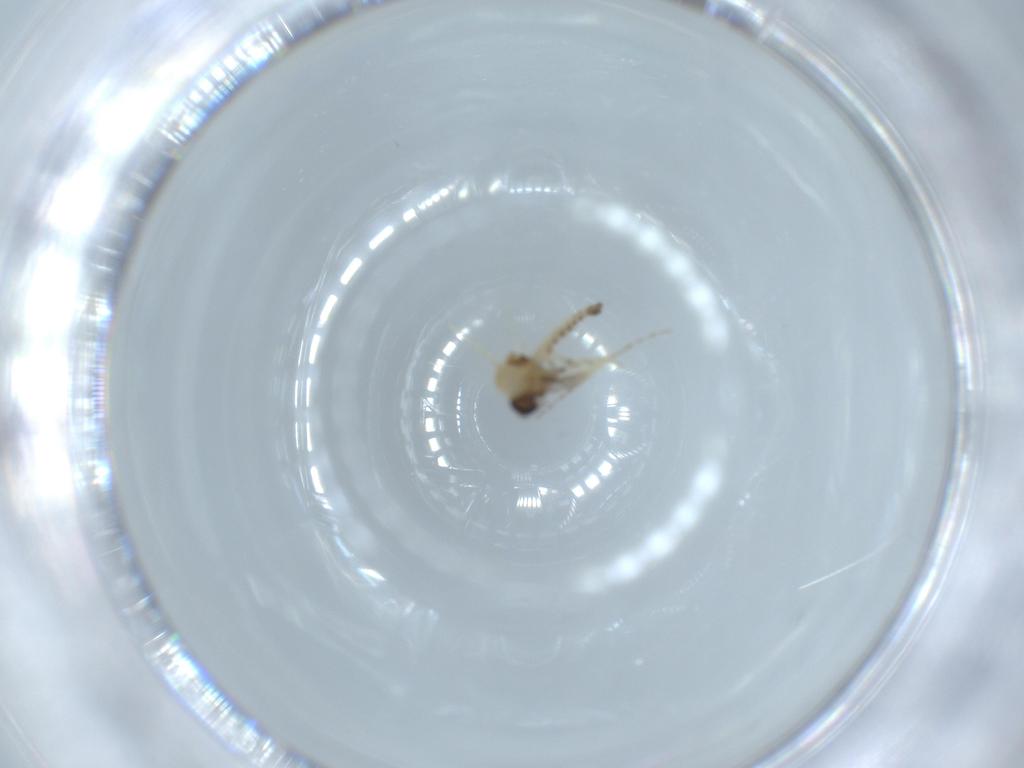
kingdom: Animalia
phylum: Arthropoda
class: Insecta
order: Diptera
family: Ceratopogonidae
